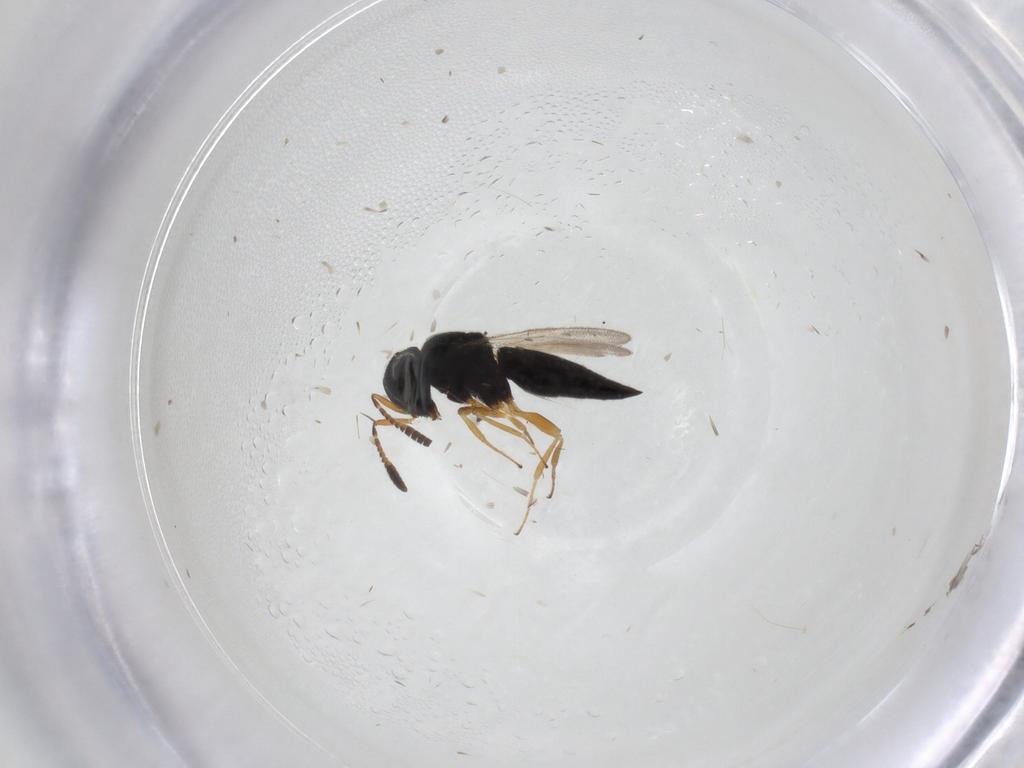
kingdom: Animalia
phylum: Arthropoda
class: Insecta
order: Hymenoptera
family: Scelionidae
